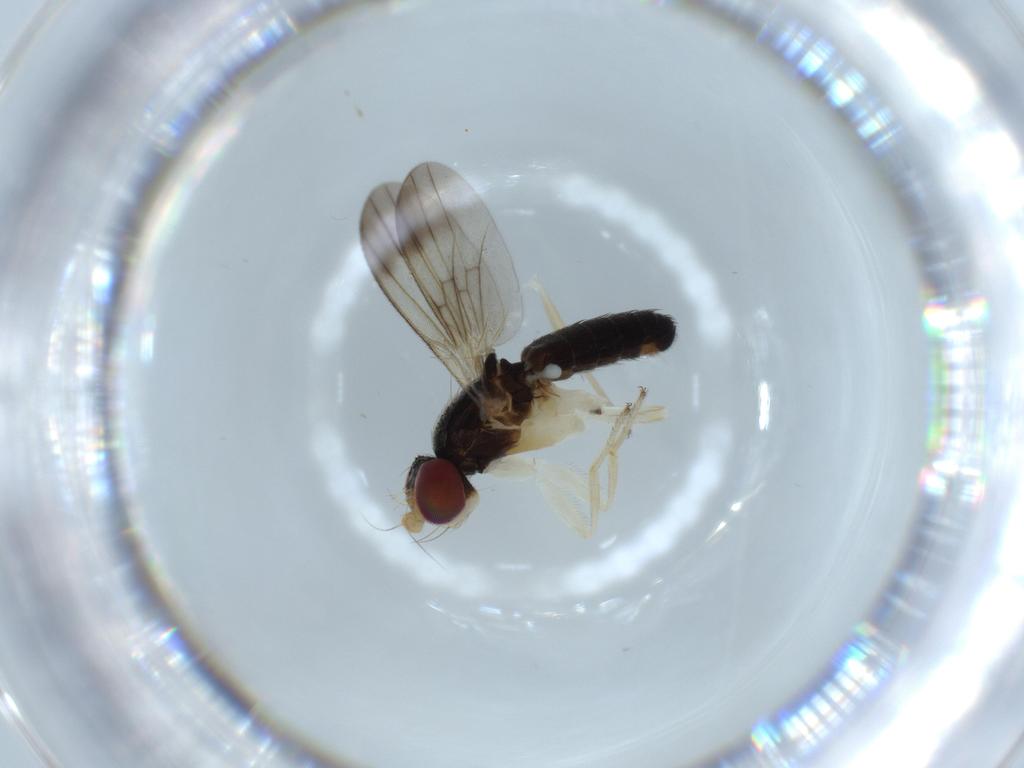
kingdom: Animalia
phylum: Arthropoda
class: Insecta
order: Diptera
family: Clusiidae
